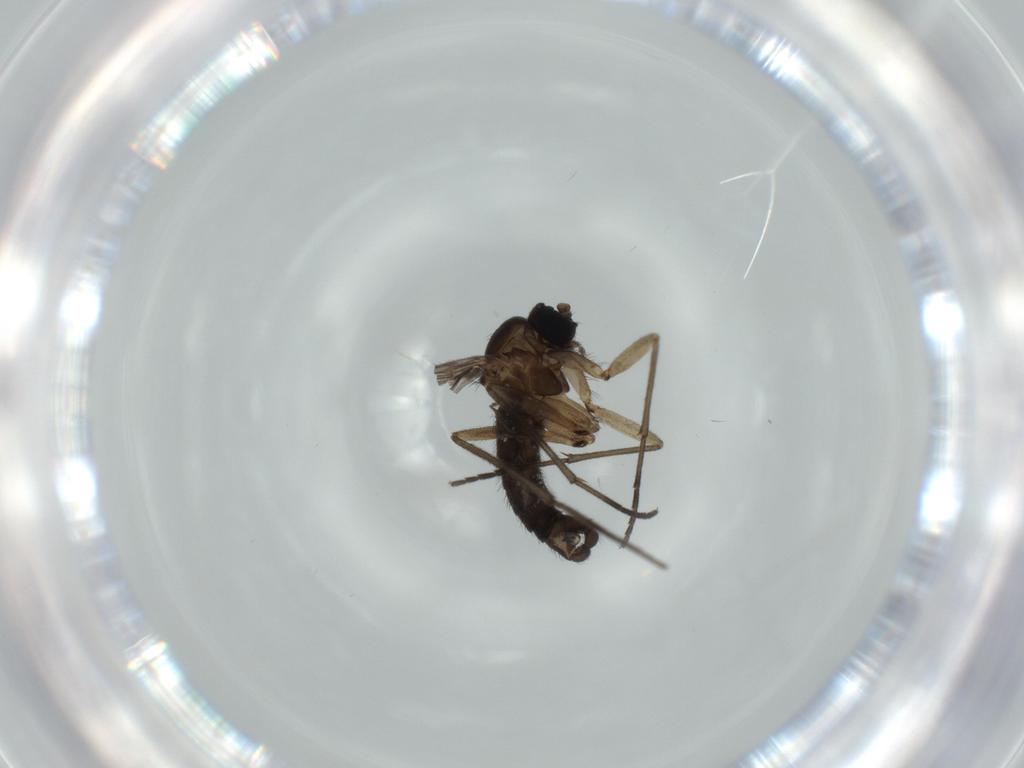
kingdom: Animalia
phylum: Arthropoda
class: Insecta
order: Diptera
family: Sciaridae
